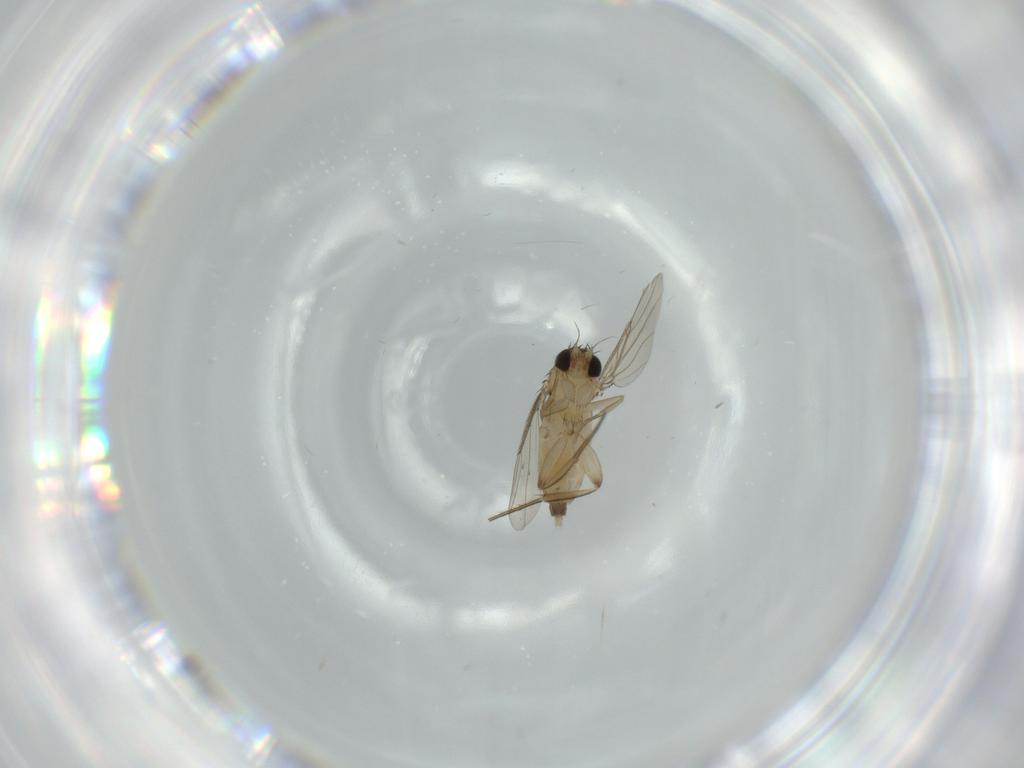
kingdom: Animalia
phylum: Arthropoda
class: Insecta
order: Diptera
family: Phoridae
